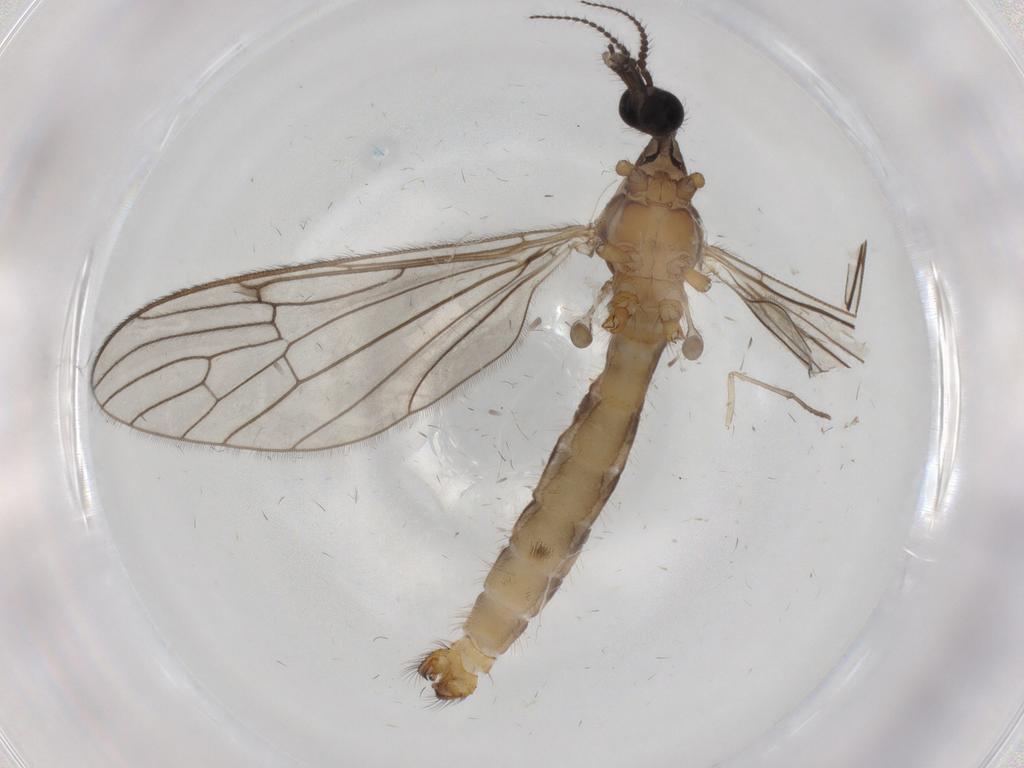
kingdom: Animalia
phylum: Arthropoda
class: Insecta
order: Diptera
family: Limoniidae
